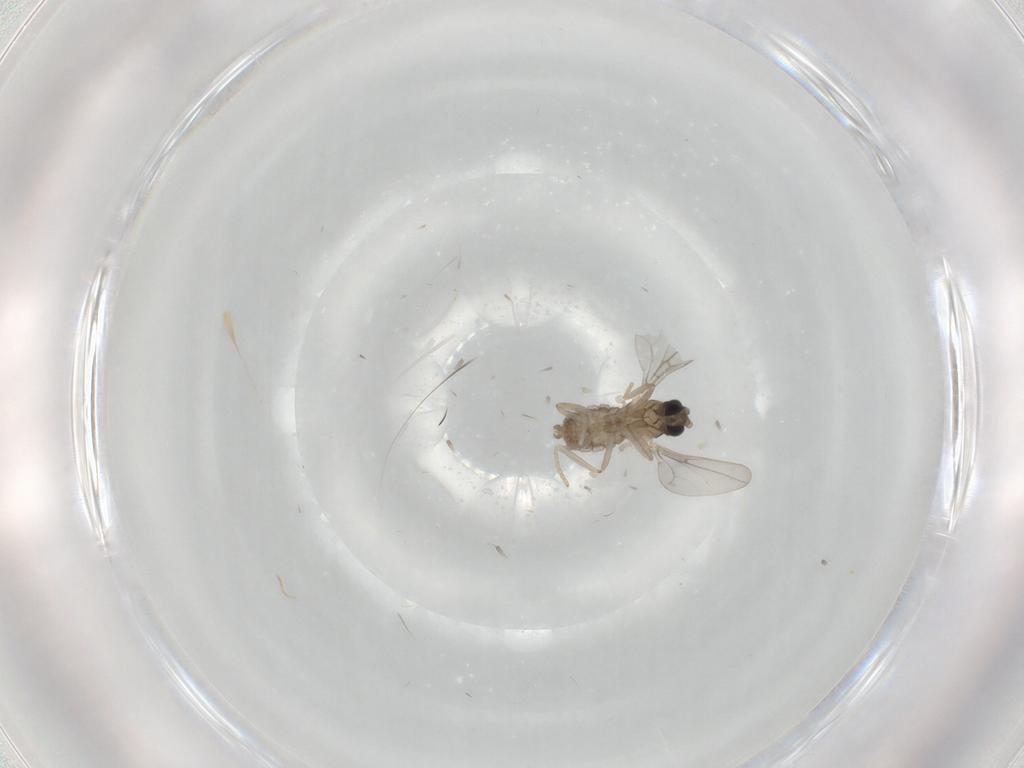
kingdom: Animalia
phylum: Arthropoda
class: Insecta
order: Diptera
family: Cecidomyiidae
